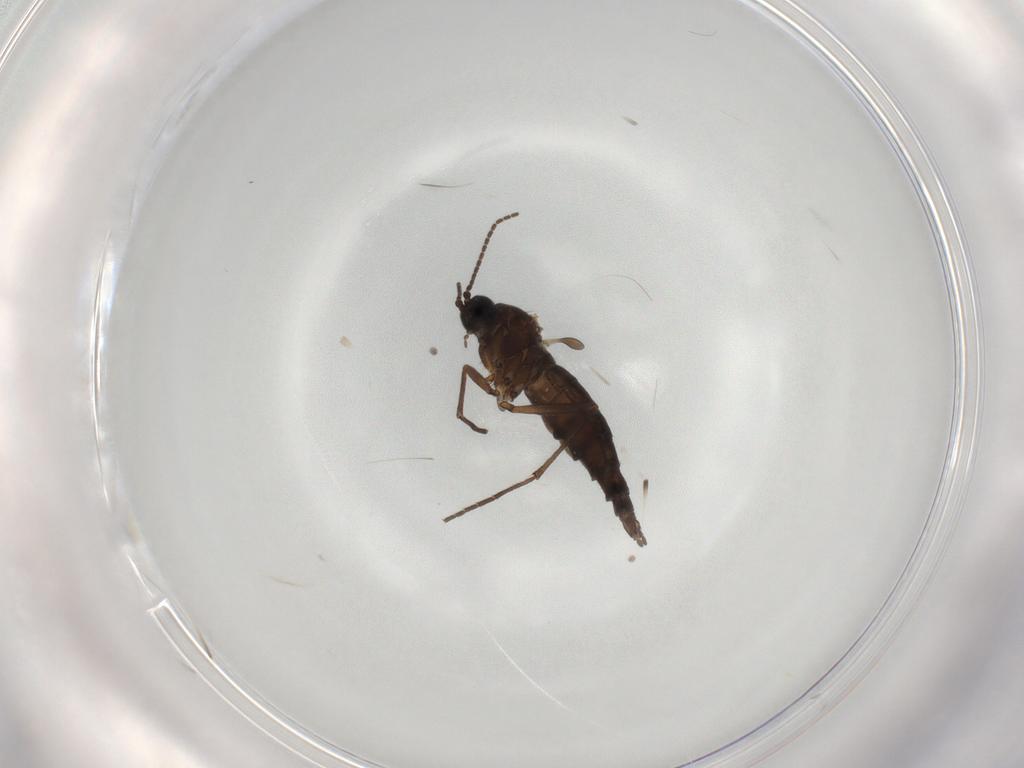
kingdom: Animalia
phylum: Arthropoda
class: Insecta
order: Diptera
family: Sciaridae
